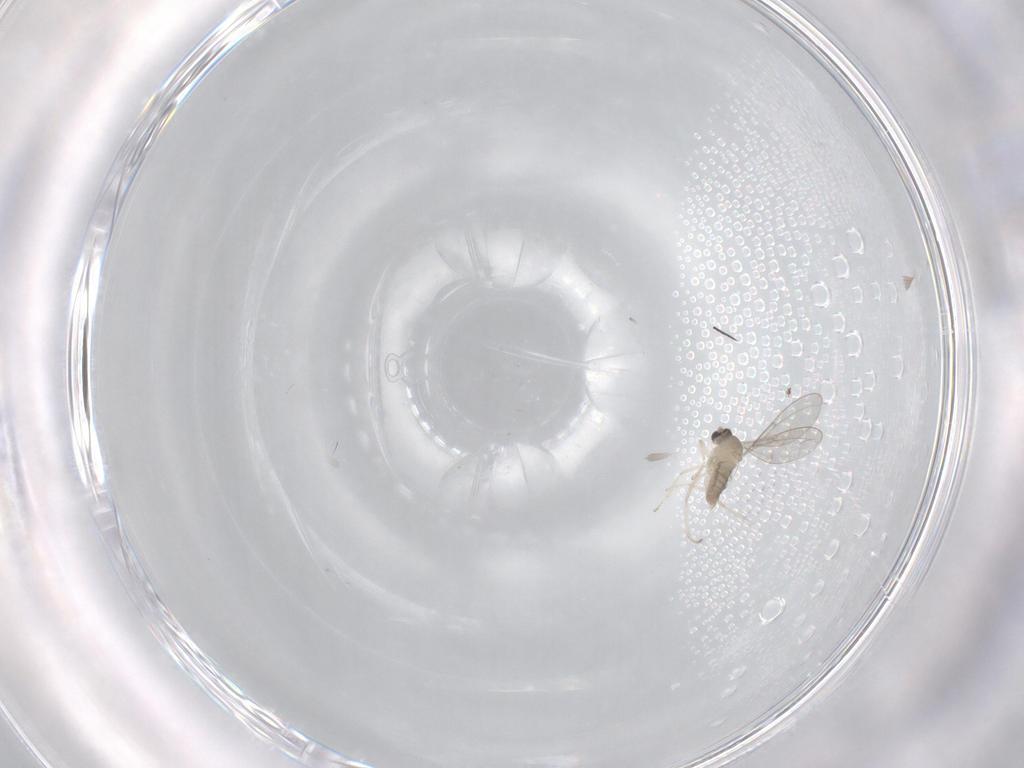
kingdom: Animalia
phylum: Arthropoda
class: Insecta
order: Diptera
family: Cecidomyiidae
